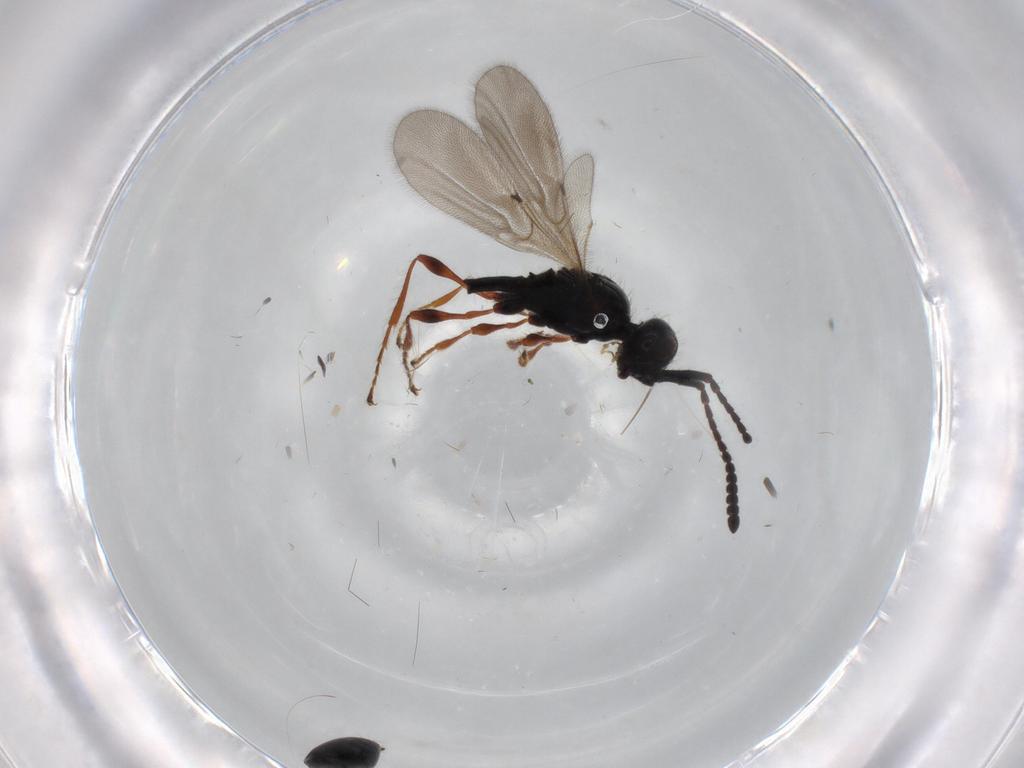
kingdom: Animalia
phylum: Arthropoda
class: Insecta
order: Hymenoptera
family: Diapriidae
